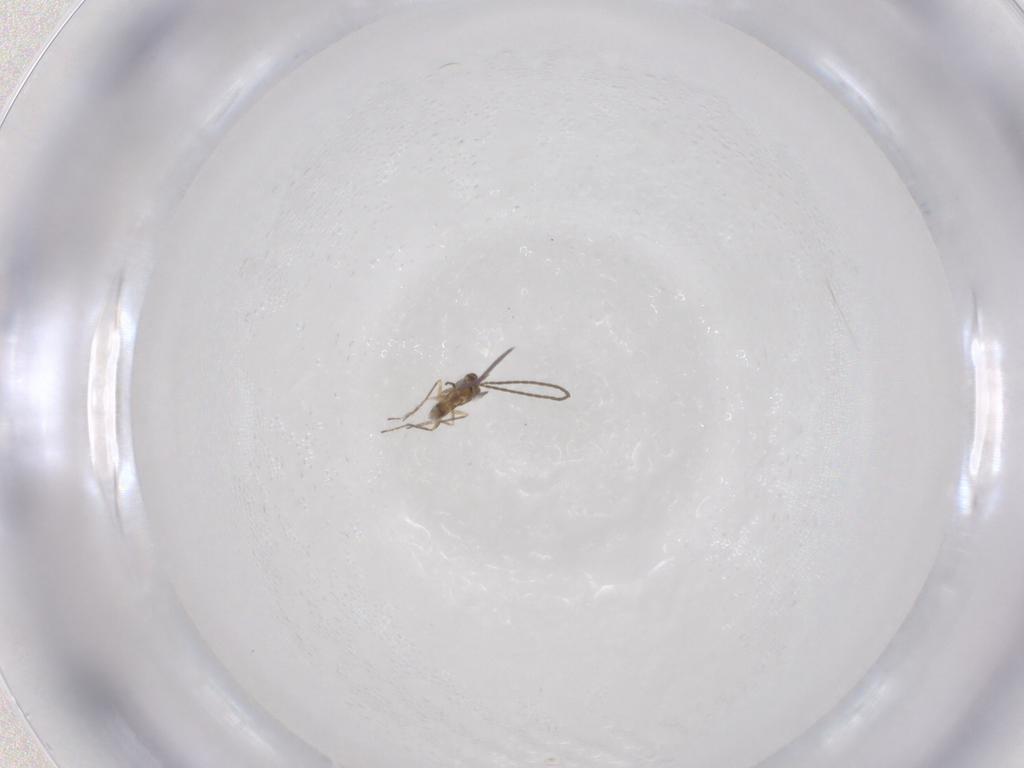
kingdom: Animalia
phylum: Arthropoda
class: Insecta
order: Hymenoptera
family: Mymaridae
